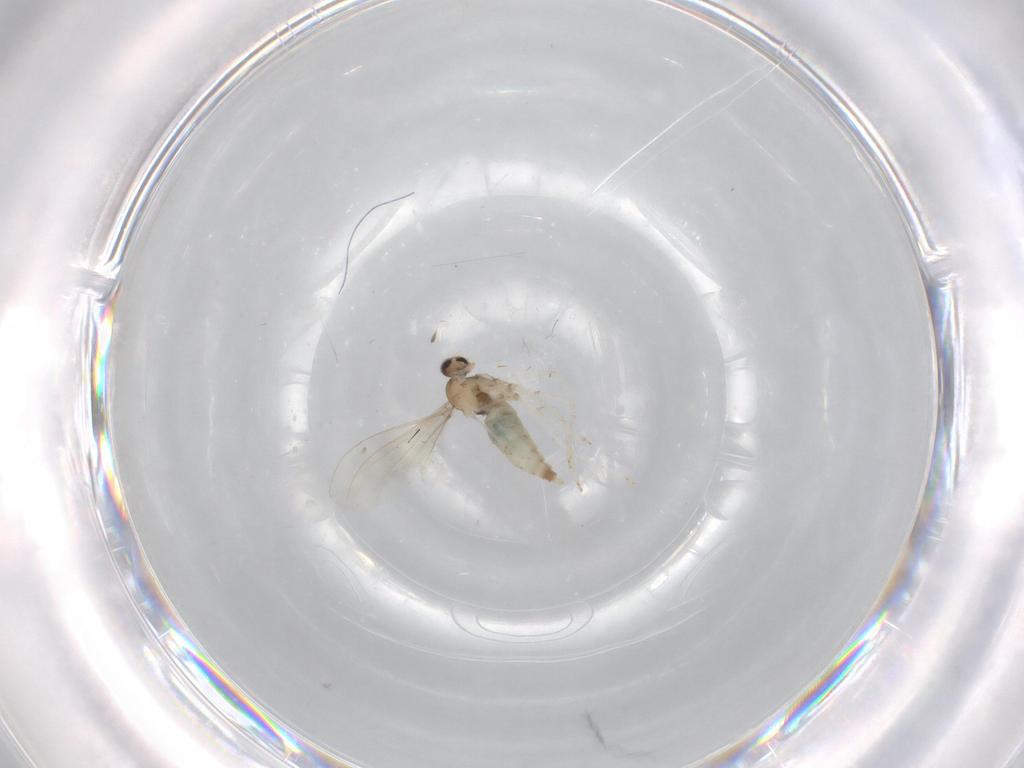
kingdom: Animalia
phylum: Arthropoda
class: Insecta
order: Diptera
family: Cecidomyiidae
